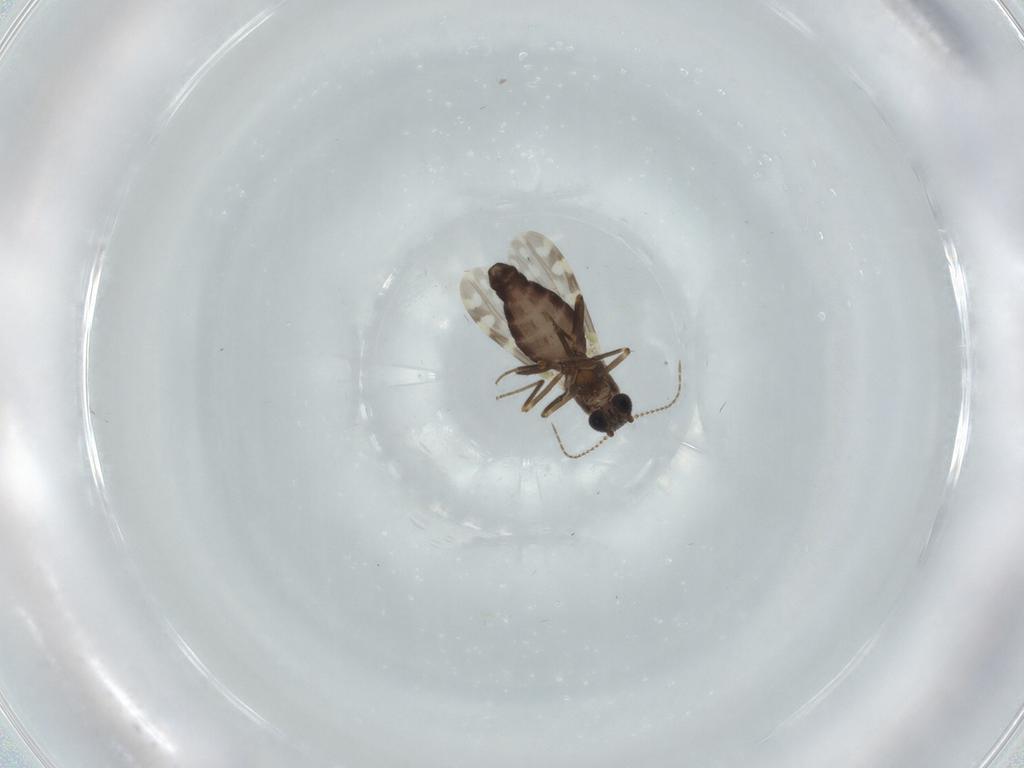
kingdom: Animalia
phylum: Arthropoda
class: Insecta
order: Diptera
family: Ceratopogonidae
